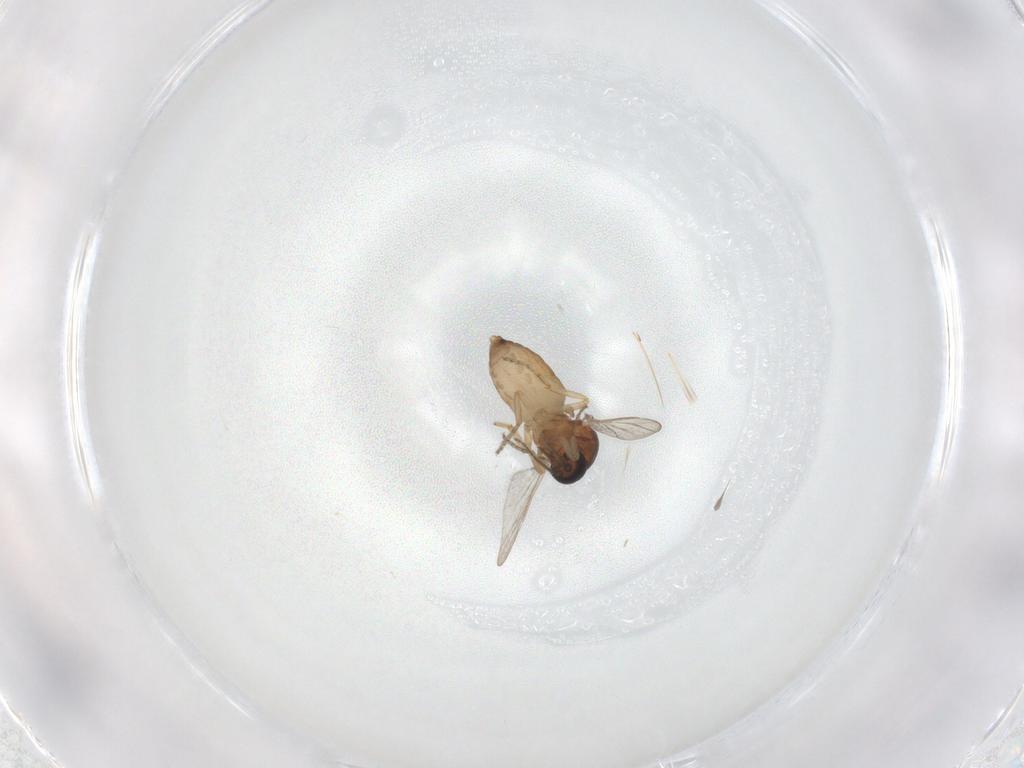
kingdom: Animalia
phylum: Arthropoda
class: Insecta
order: Diptera
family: Ceratopogonidae
